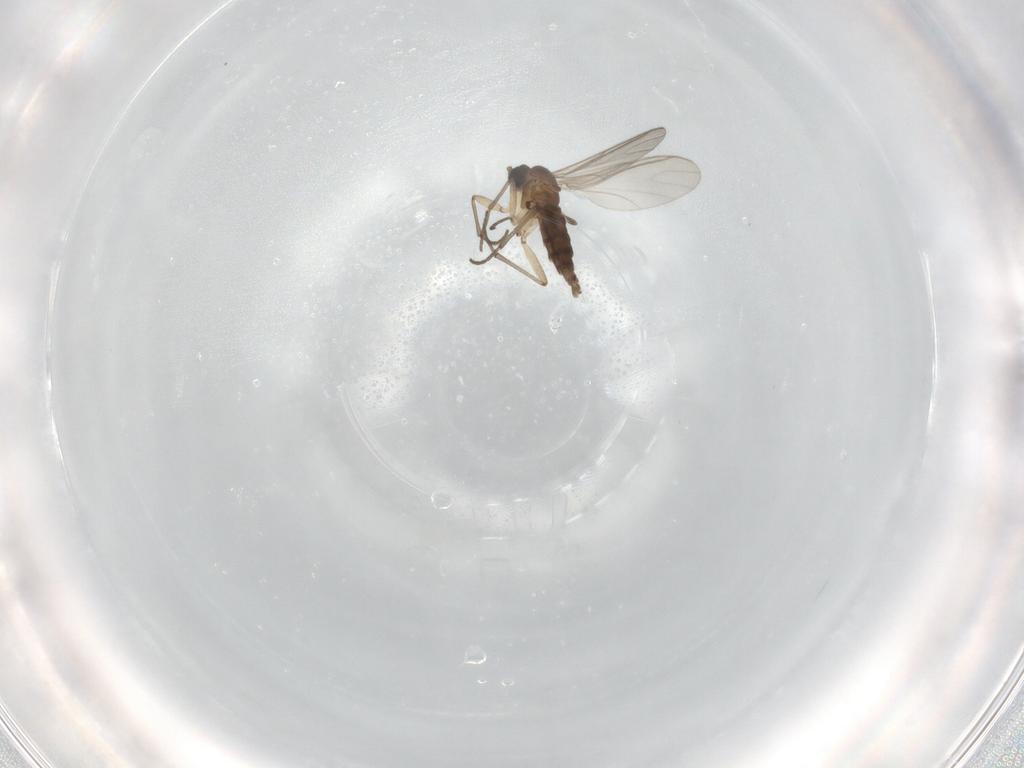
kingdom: Animalia
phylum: Arthropoda
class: Insecta
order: Diptera
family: Sciaridae
